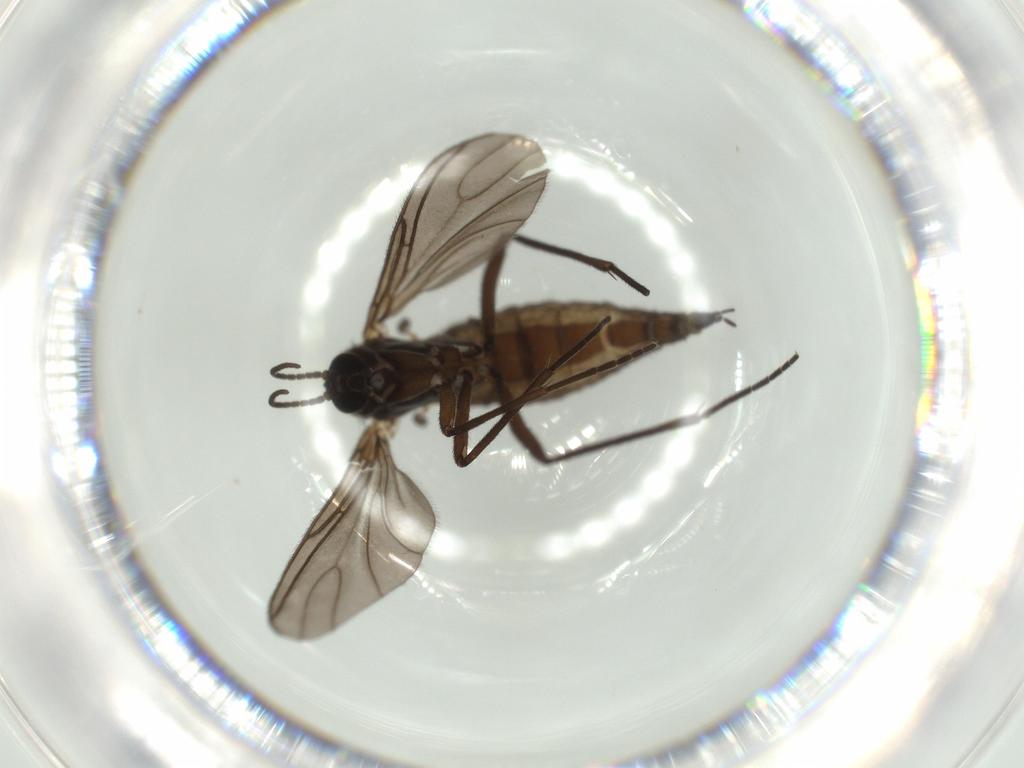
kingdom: Animalia
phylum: Arthropoda
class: Insecta
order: Diptera
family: Sciaridae
